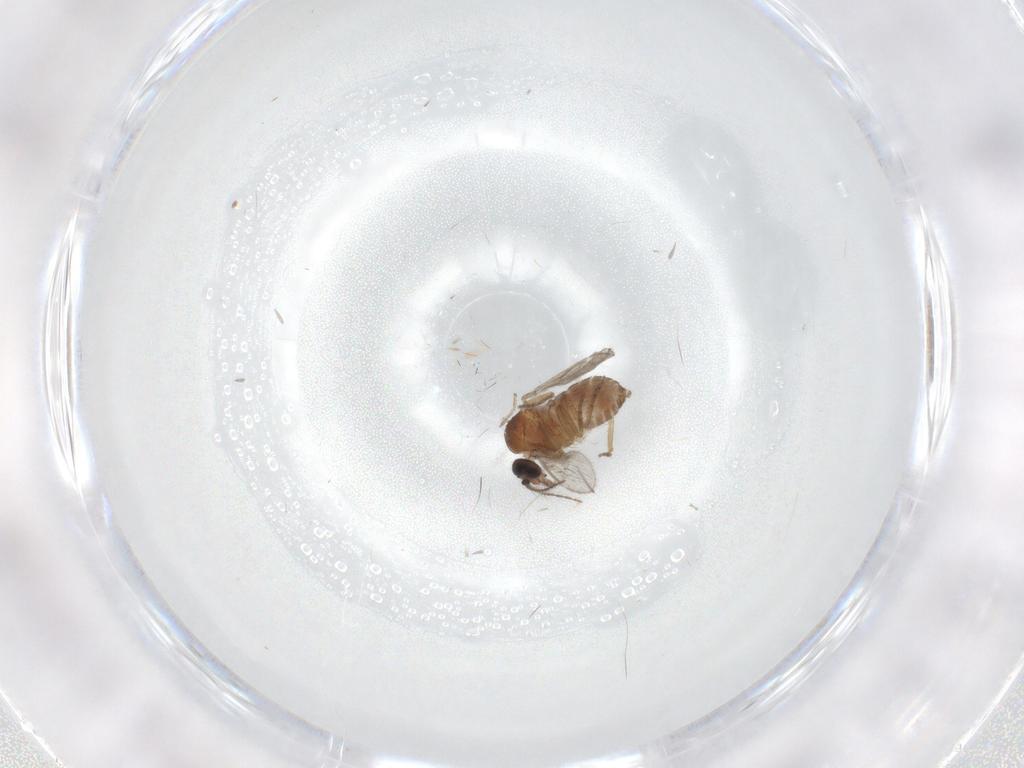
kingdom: Animalia
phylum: Arthropoda
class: Insecta
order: Diptera
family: Ceratopogonidae
